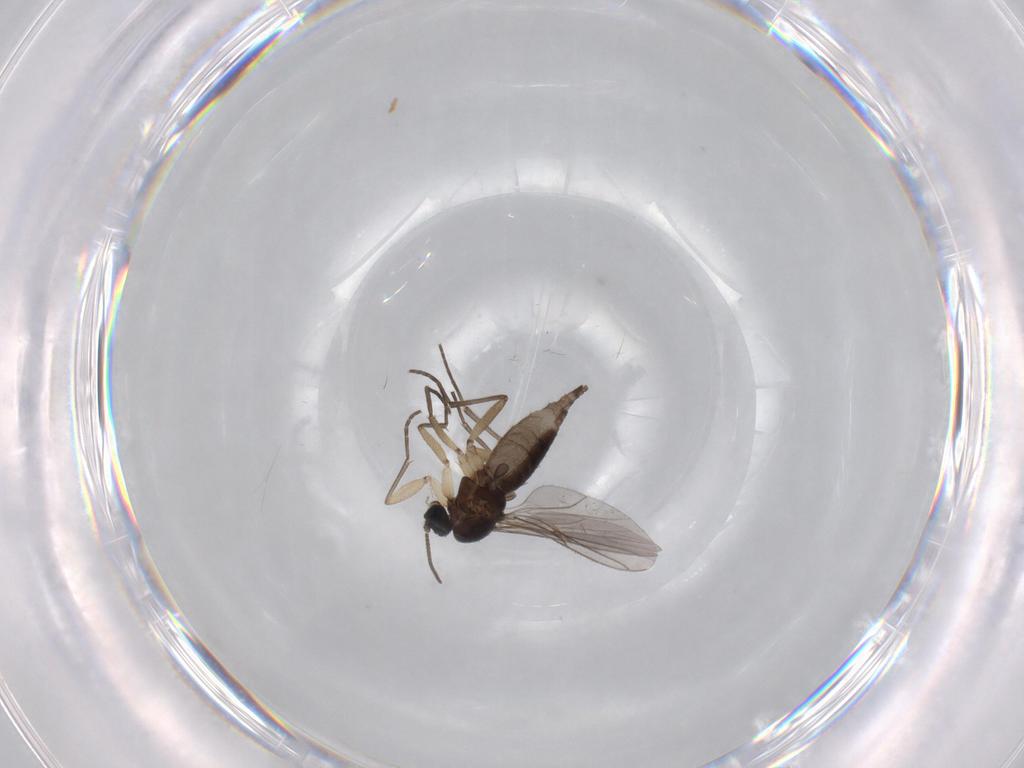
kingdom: Animalia
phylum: Arthropoda
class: Insecta
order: Diptera
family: Sciaridae
